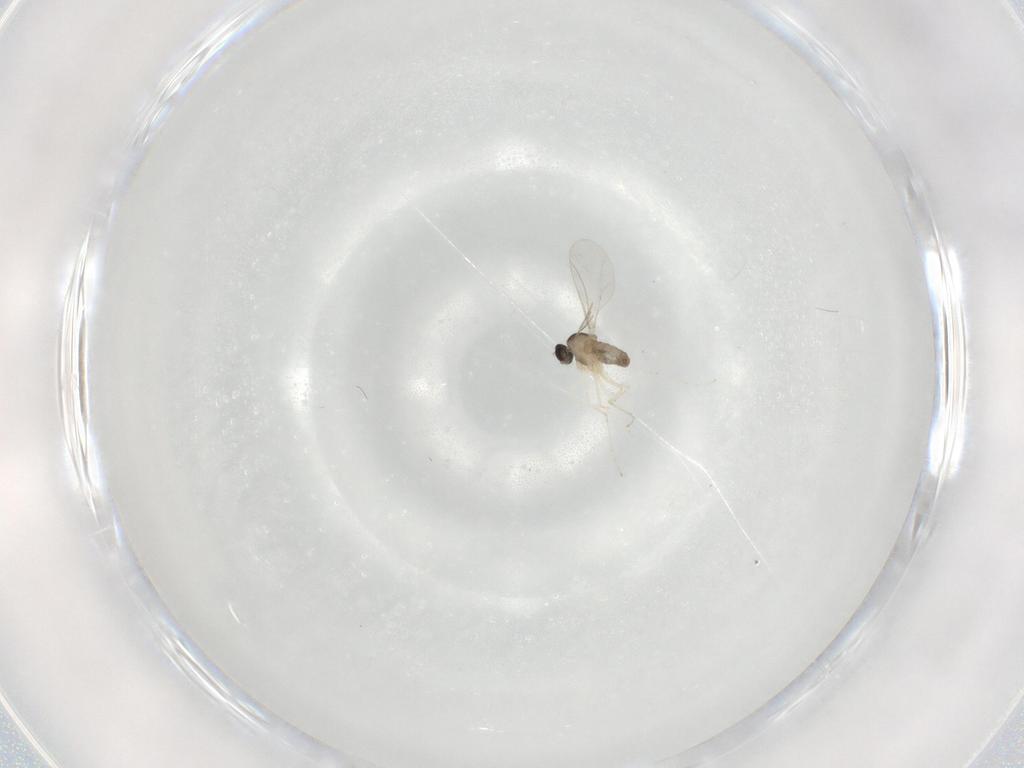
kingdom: Animalia
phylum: Arthropoda
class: Insecta
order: Diptera
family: Cecidomyiidae
